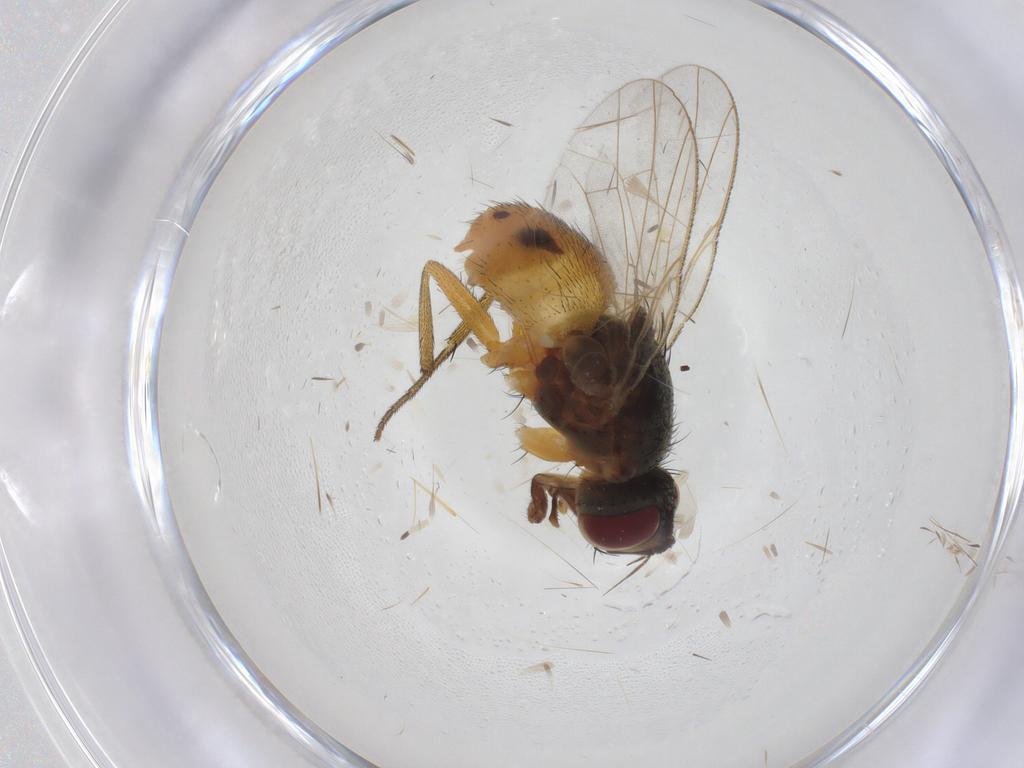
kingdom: Animalia
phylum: Arthropoda
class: Insecta
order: Diptera
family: Muscidae
